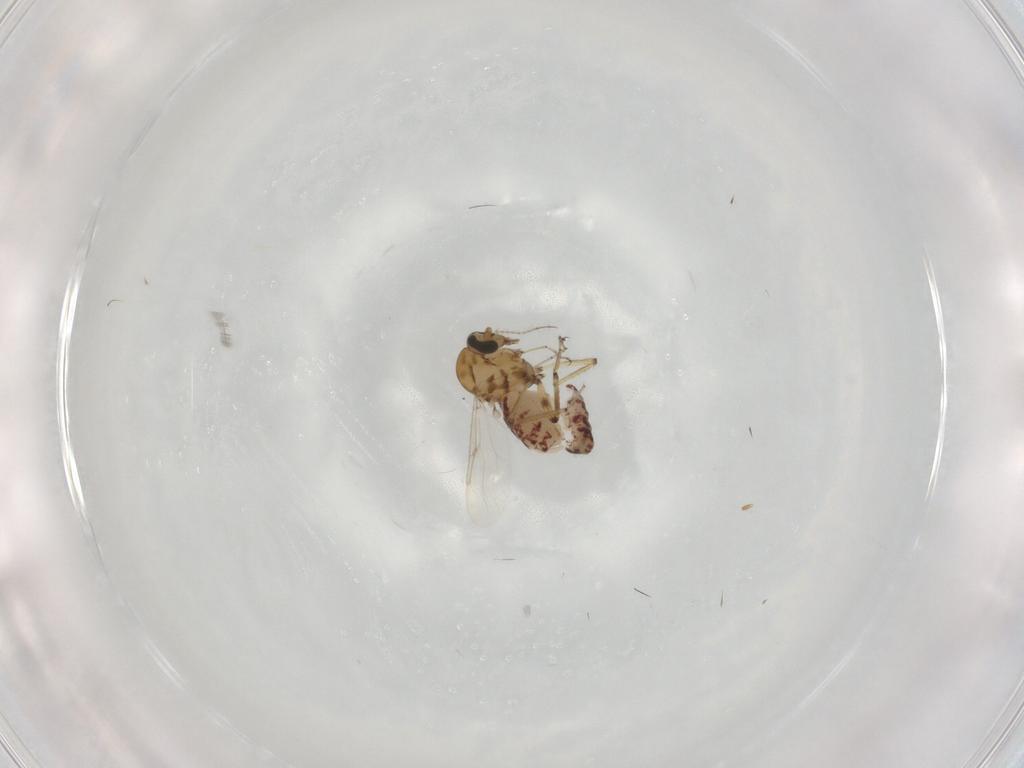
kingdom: Animalia
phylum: Arthropoda
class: Insecta
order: Diptera
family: Ceratopogonidae
